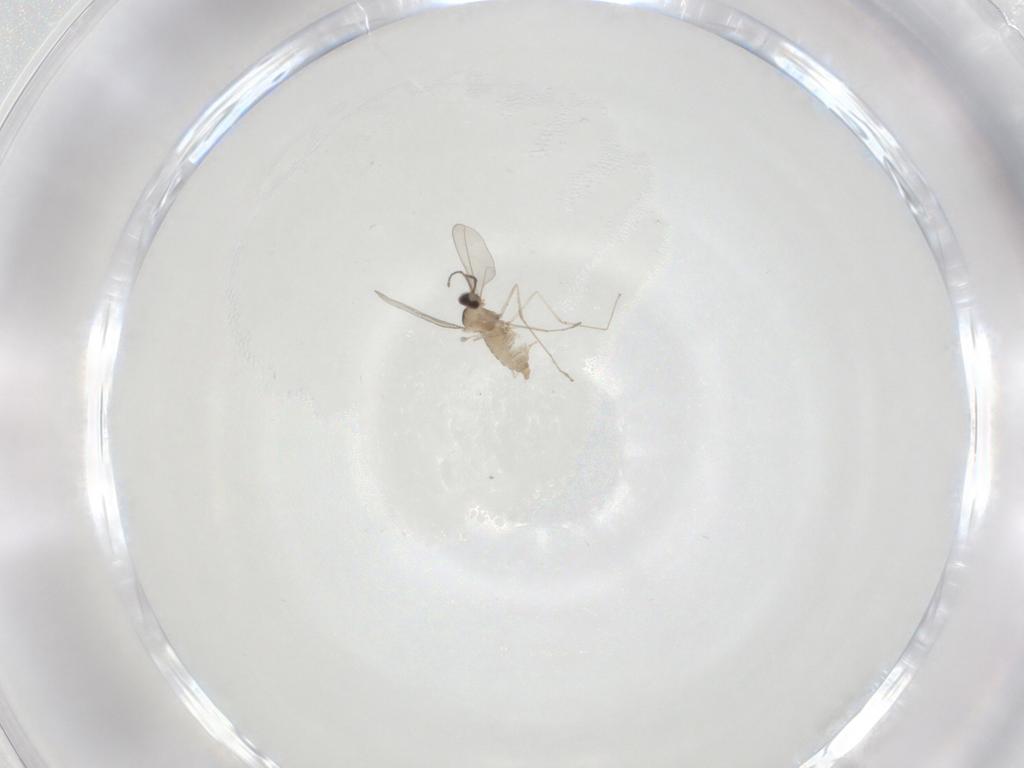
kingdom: Animalia
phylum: Arthropoda
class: Insecta
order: Diptera
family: Cecidomyiidae
